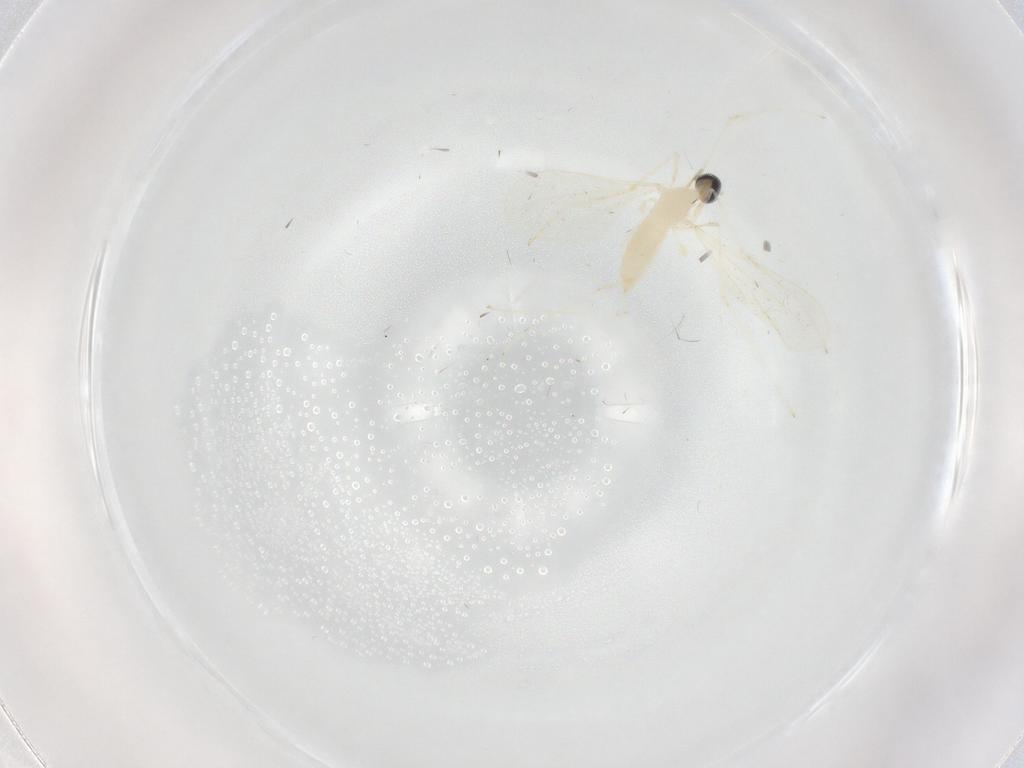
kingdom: Animalia
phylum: Arthropoda
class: Insecta
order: Diptera
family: Cecidomyiidae
